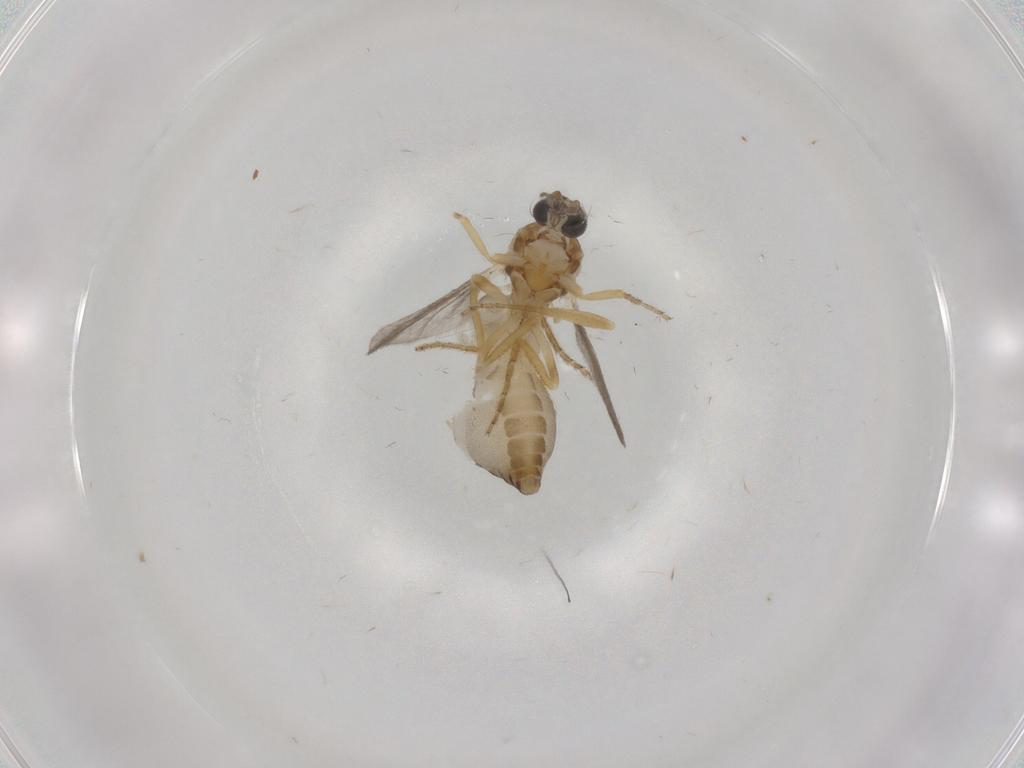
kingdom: Animalia
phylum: Arthropoda
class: Insecta
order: Diptera
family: Ceratopogonidae
